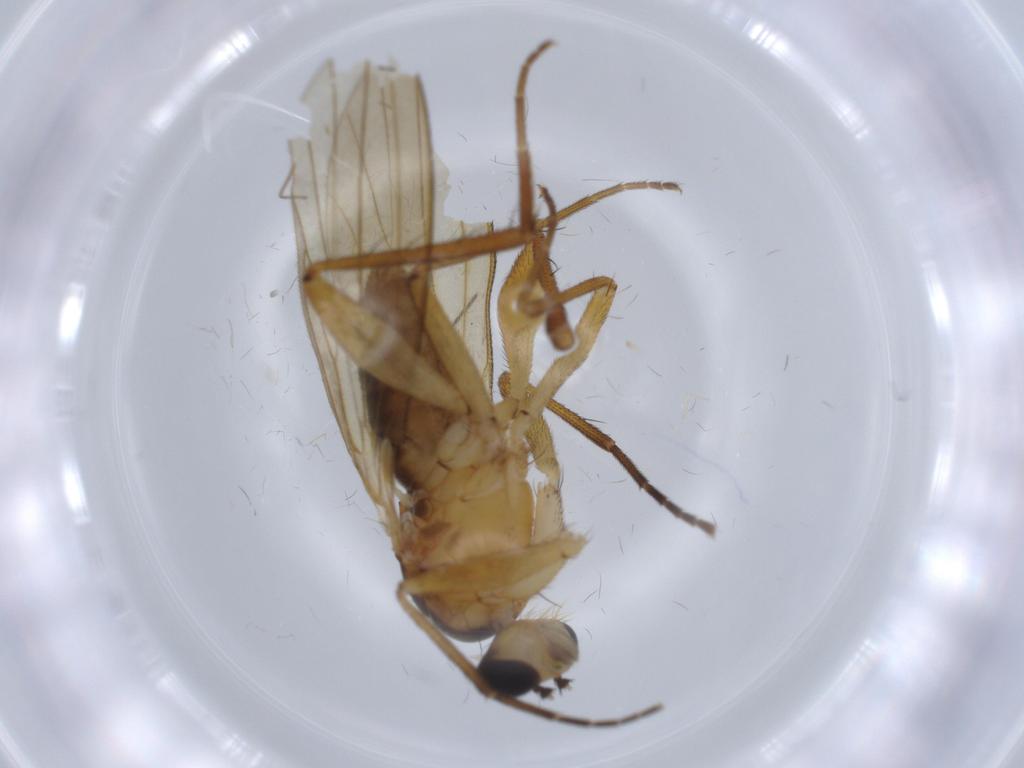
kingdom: Animalia
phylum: Arthropoda
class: Insecta
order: Diptera
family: Lonchopteridae
